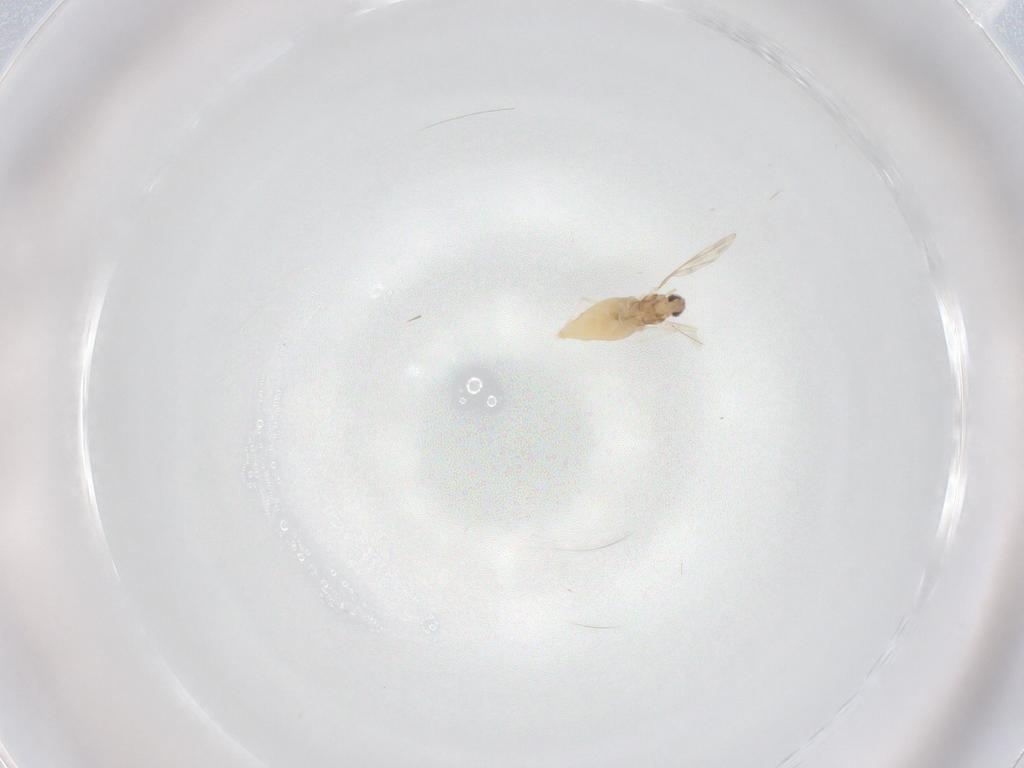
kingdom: Animalia
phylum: Arthropoda
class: Insecta
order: Diptera
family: Cecidomyiidae
